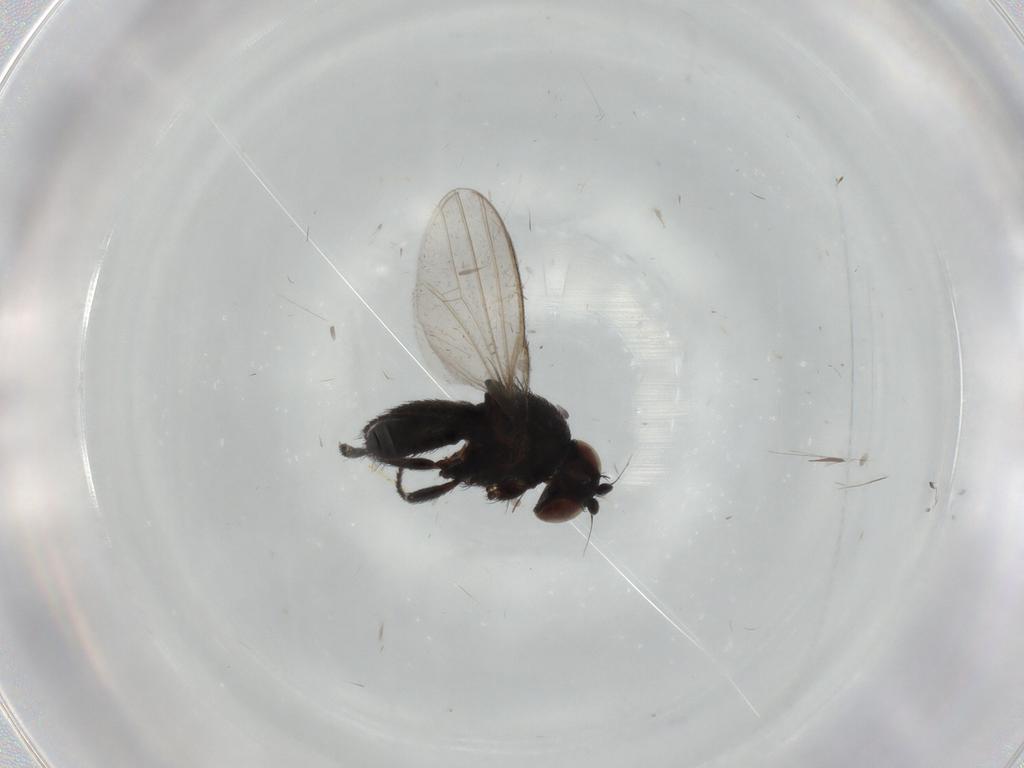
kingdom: Animalia
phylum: Arthropoda
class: Insecta
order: Diptera
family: Milichiidae
